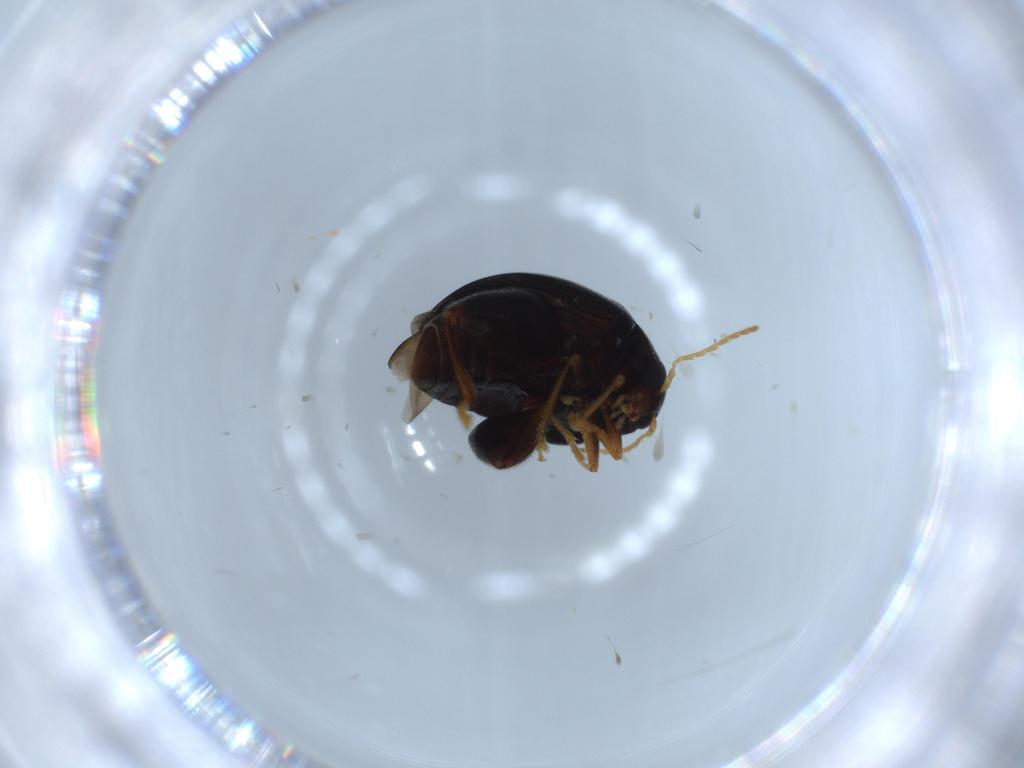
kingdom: Animalia
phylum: Arthropoda
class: Insecta
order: Coleoptera
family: Chrysomelidae
